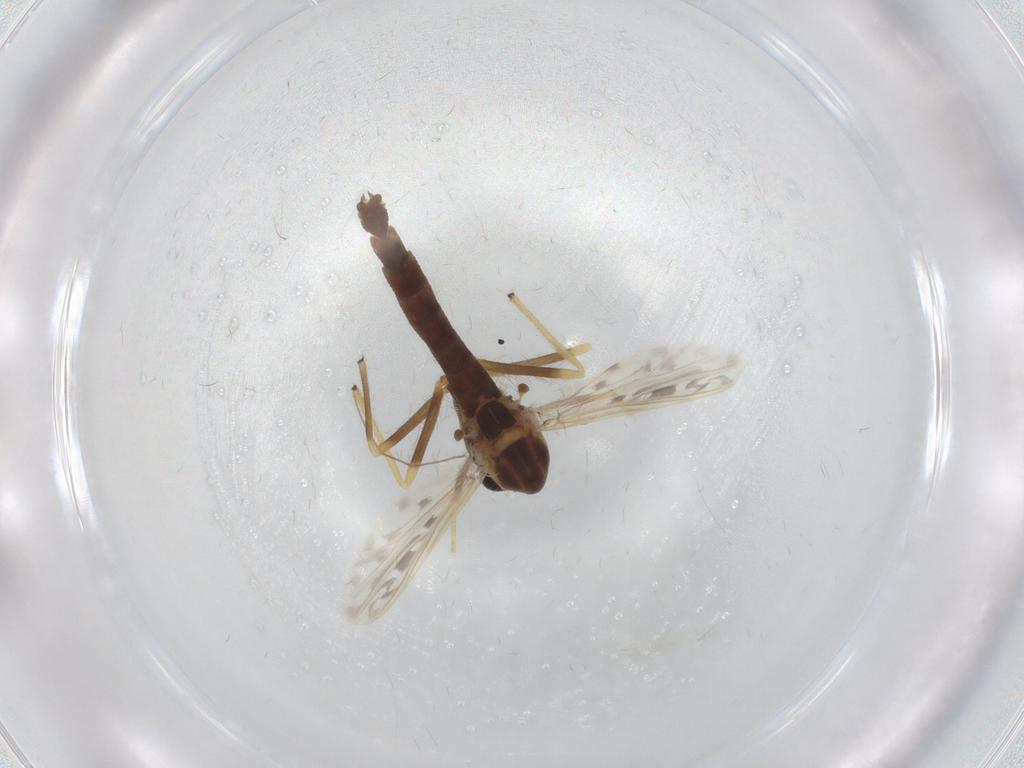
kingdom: Animalia
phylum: Arthropoda
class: Insecta
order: Diptera
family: Chironomidae
